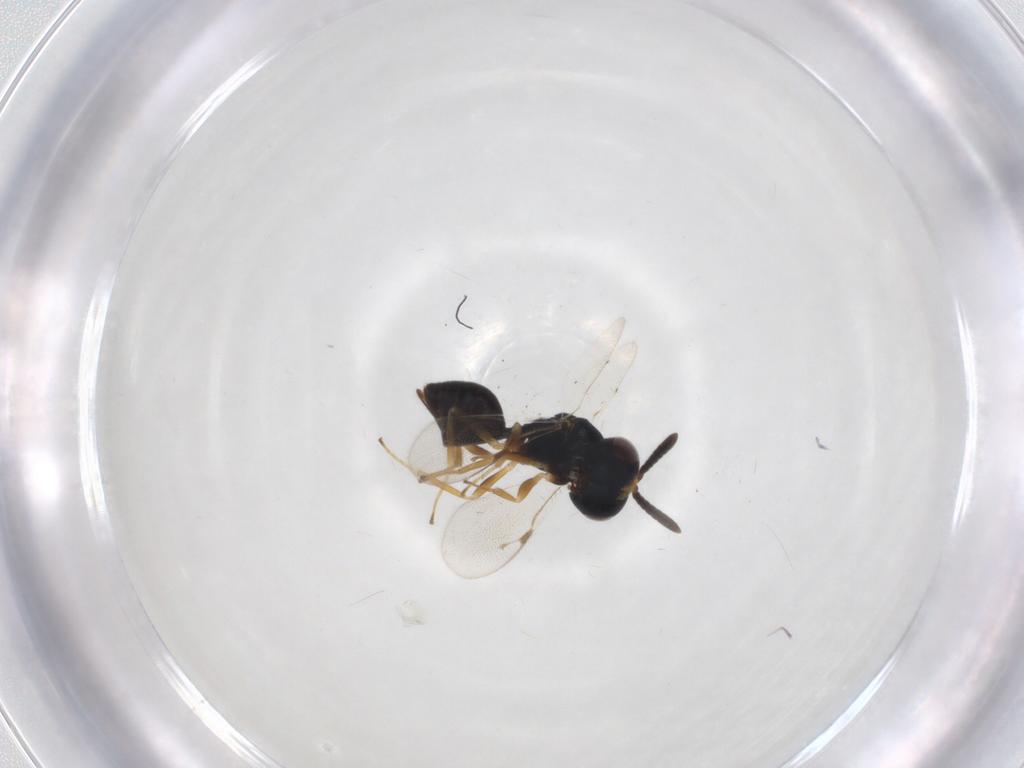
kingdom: Animalia
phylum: Arthropoda
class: Insecta
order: Hymenoptera
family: Pteromalidae
